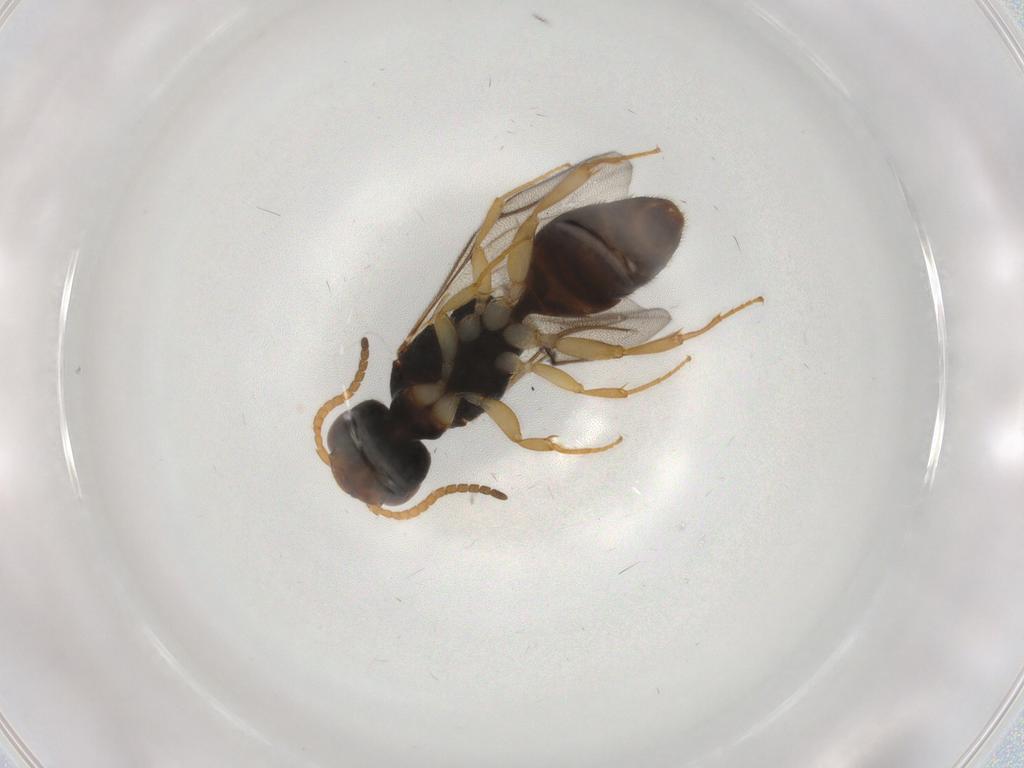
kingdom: Animalia
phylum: Arthropoda
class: Insecta
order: Hymenoptera
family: Bethylidae
